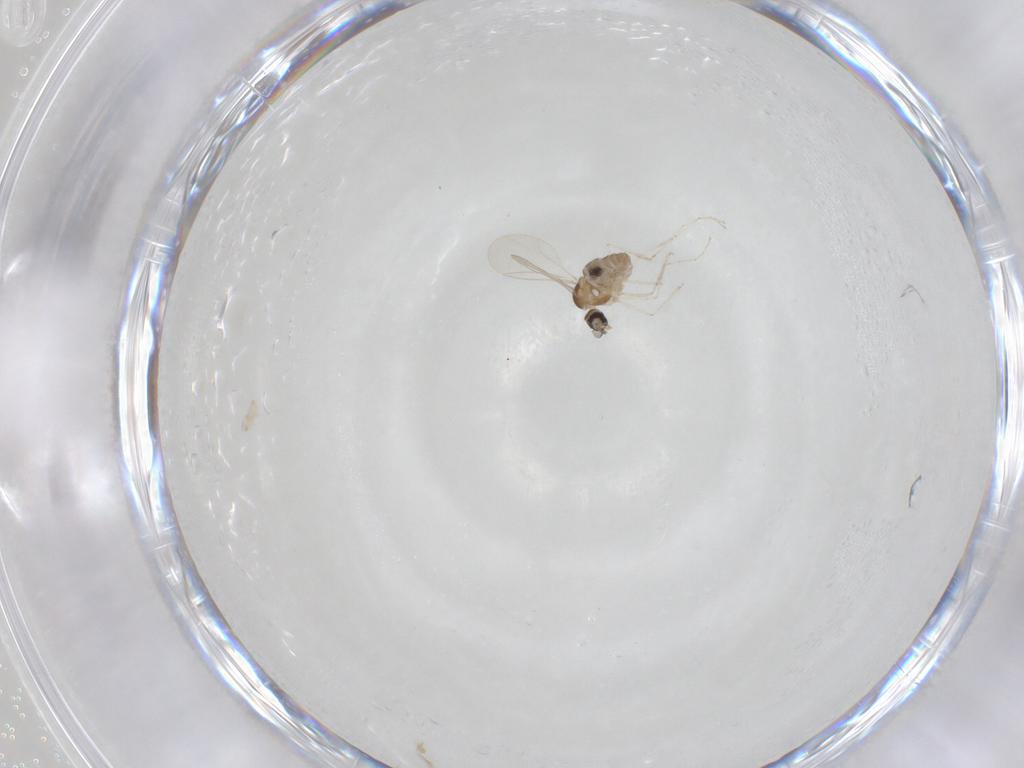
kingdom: Animalia
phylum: Arthropoda
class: Insecta
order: Diptera
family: Cecidomyiidae
